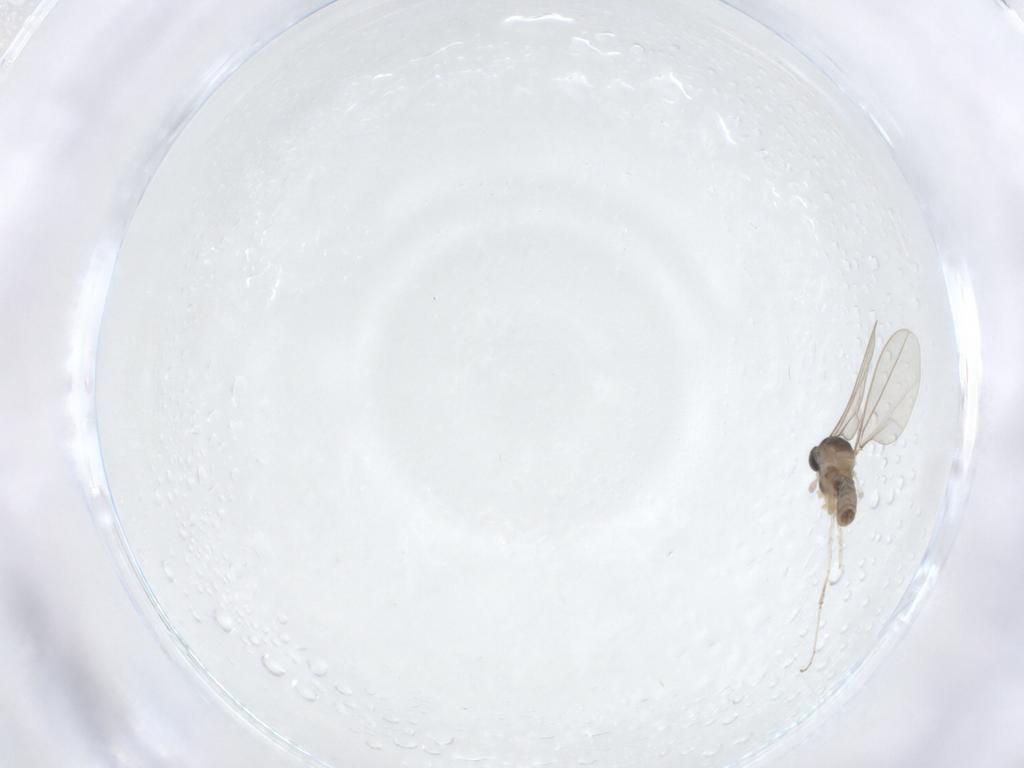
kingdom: Animalia
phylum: Arthropoda
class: Insecta
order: Diptera
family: Cecidomyiidae
